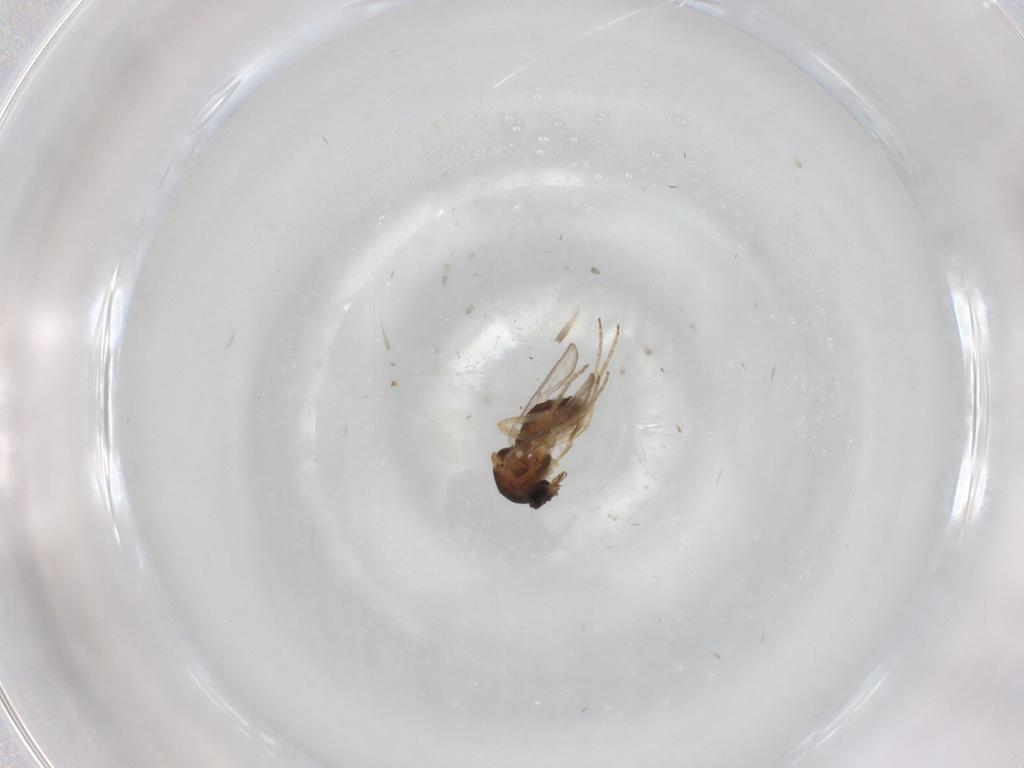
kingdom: Animalia
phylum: Arthropoda
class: Insecta
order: Diptera
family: Ceratopogonidae
